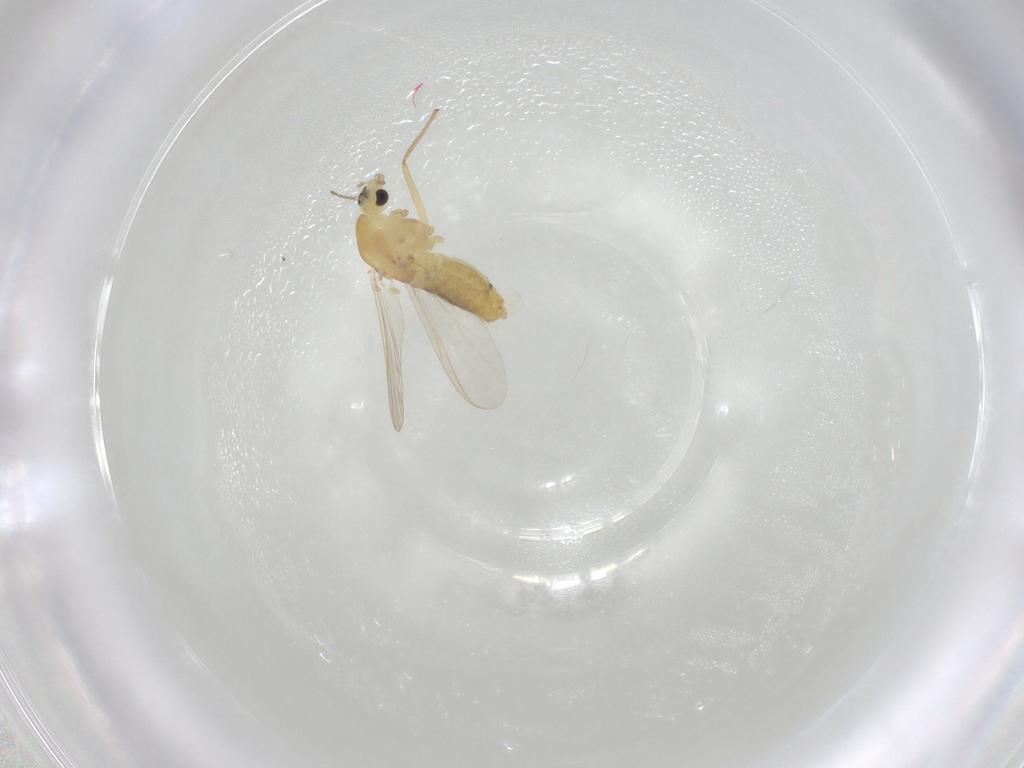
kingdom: Animalia
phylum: Arthropoda
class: Insecta
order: Diptera
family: Chironomidae
